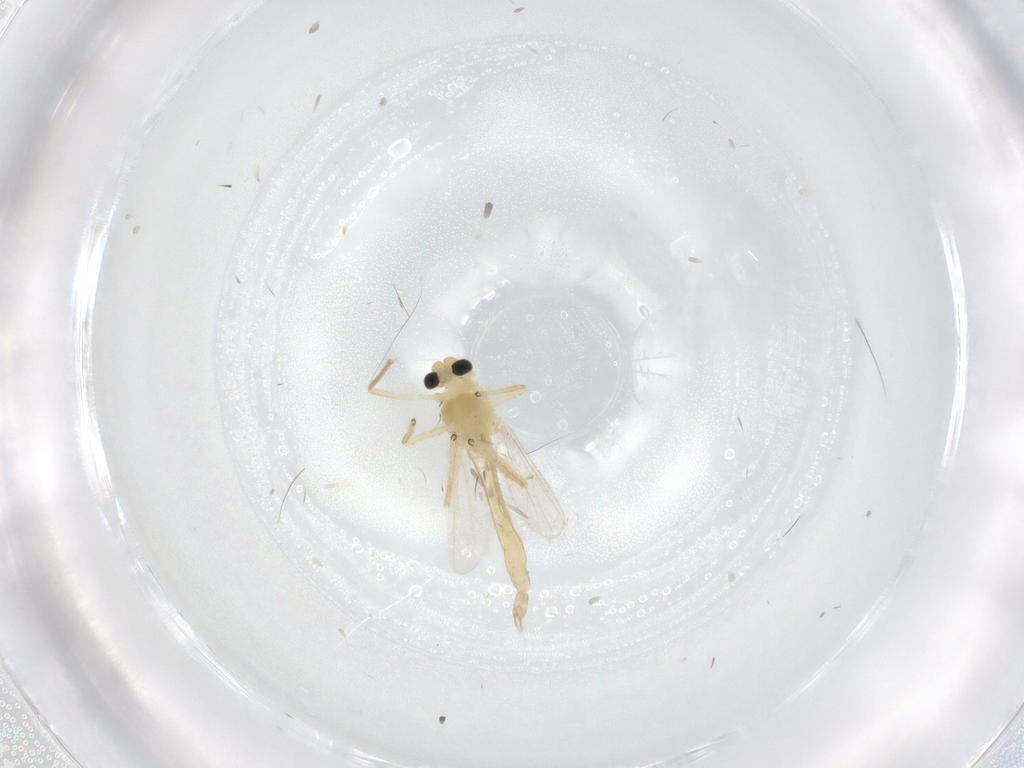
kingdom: Animalia
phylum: Arthropoda
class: Insecta
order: Diptera
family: Chironomidae
